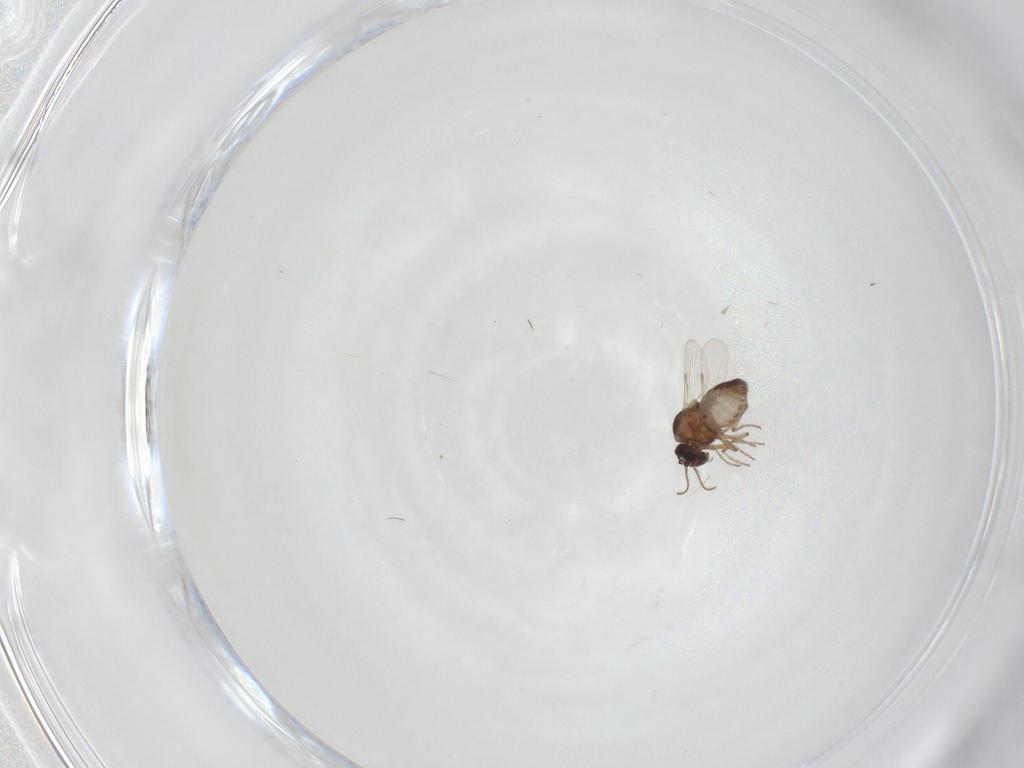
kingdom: Animalia
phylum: Arthropoda
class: Insecta
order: Diptera
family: Ceratopogonidae
